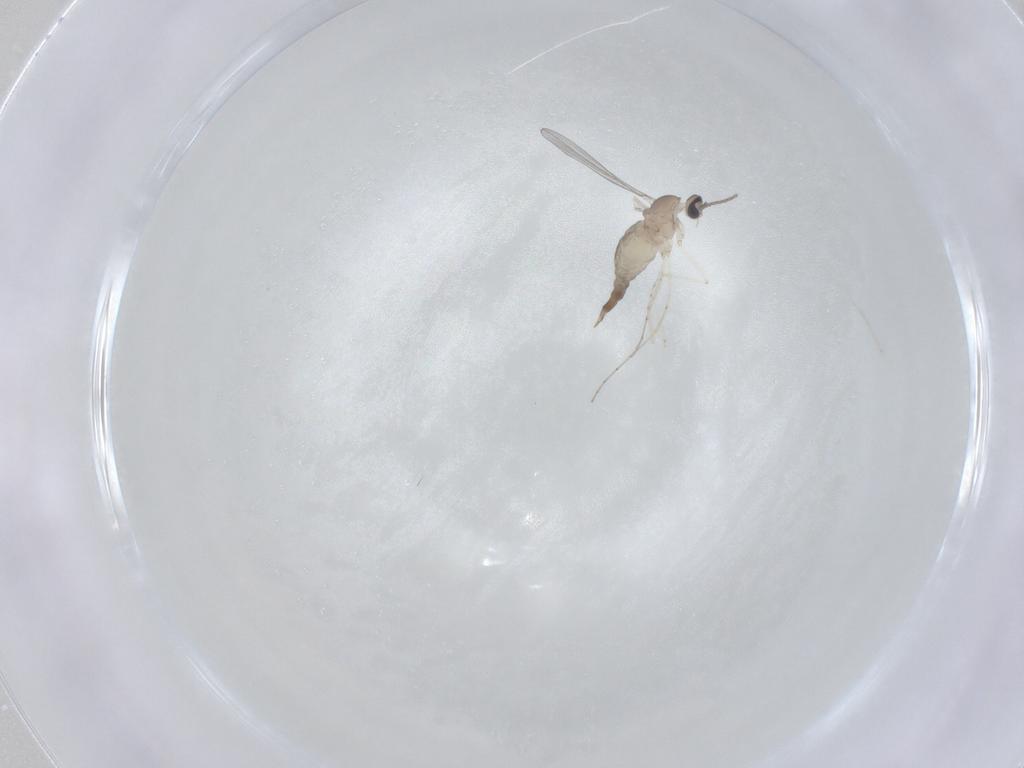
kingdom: Animalia
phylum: Arthropoda
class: Insecta
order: Diptera
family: Cecidomyiidae
